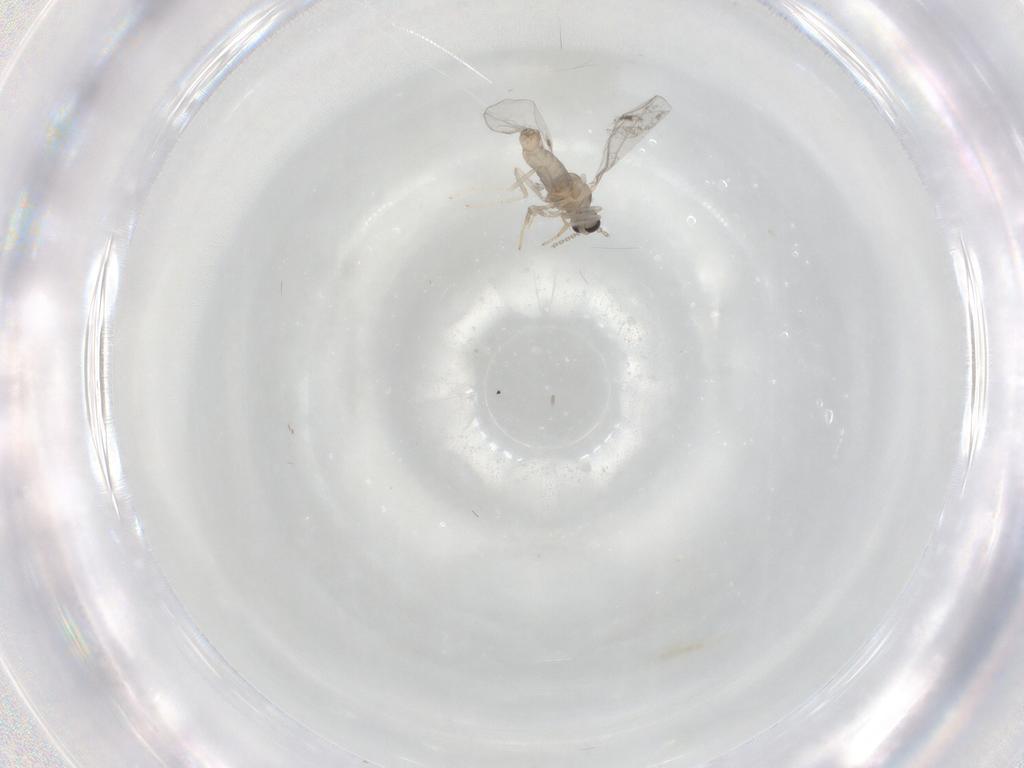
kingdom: Animalia
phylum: Arthropoda
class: Insecta
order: Diptera
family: Cecidomyiidae
